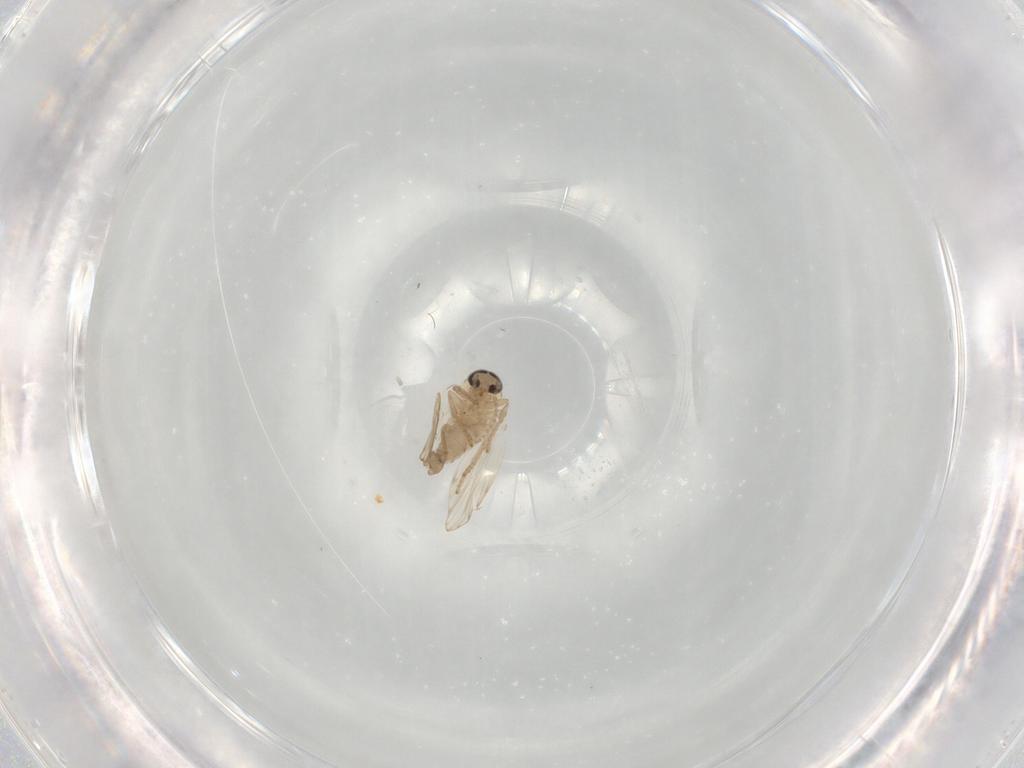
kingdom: Animalia
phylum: Arthropoda
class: Insecta
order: Diptera
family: Psychodidae
